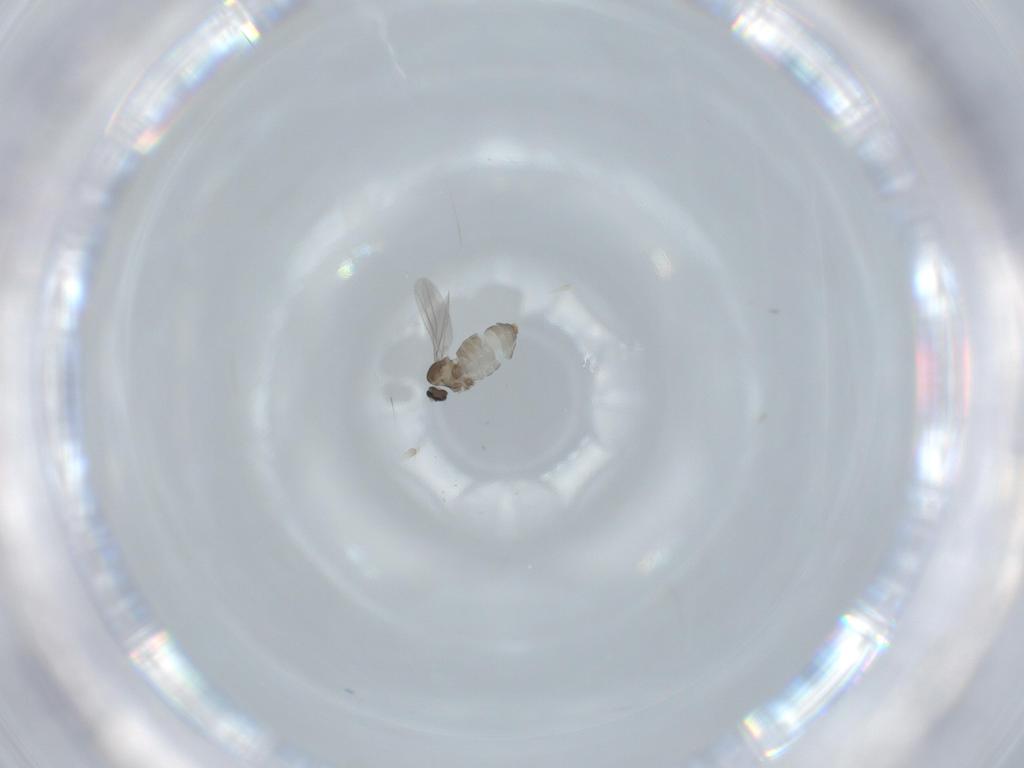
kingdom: Animalia
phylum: Arthropoda
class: Insecta
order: Diptera
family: Cecidomyiidae
